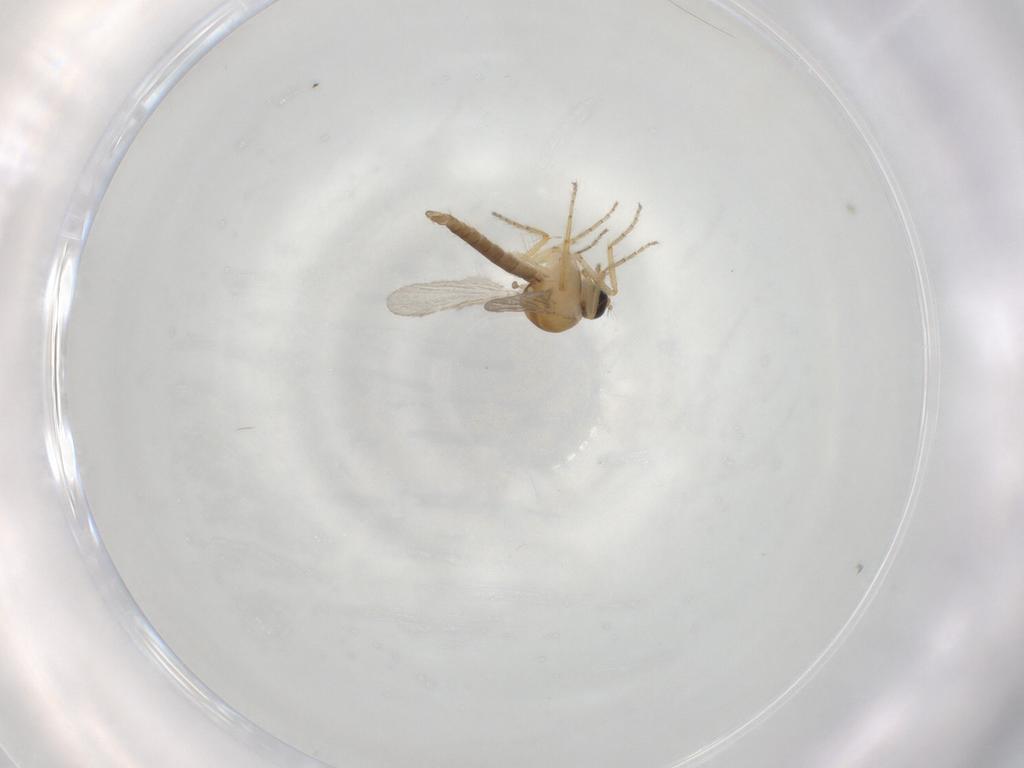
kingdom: Animalia
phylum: Arthropoda
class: Insecta
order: Diptera
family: Ceratopogonidae
